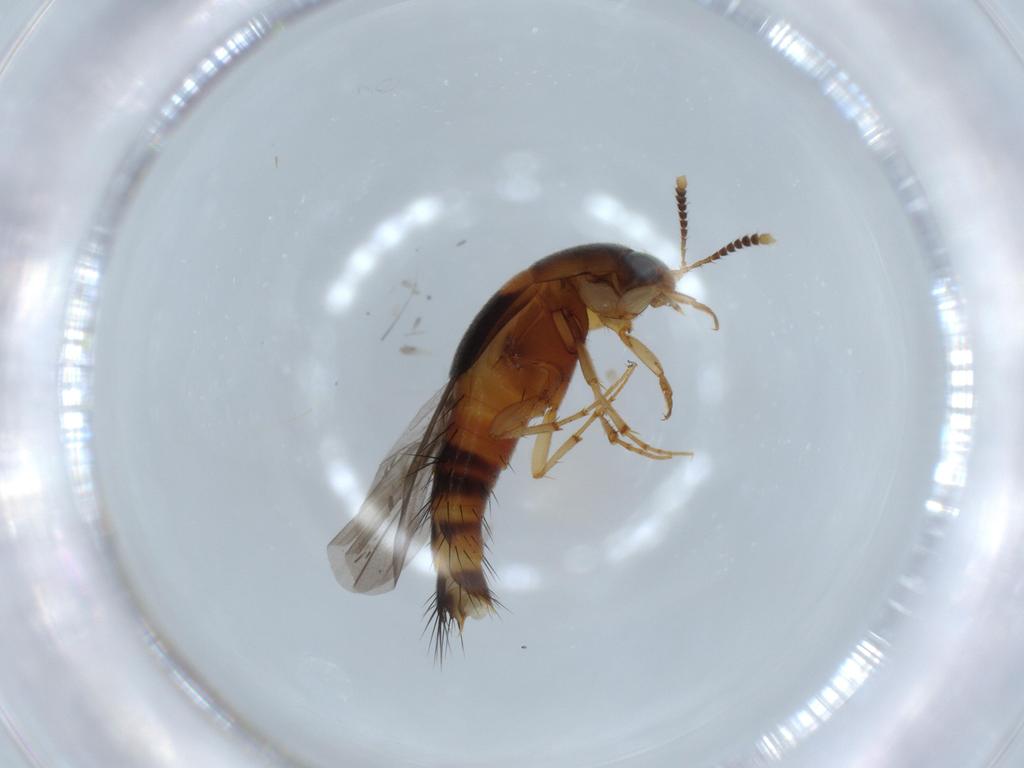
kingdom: Animalia
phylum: Arthropoda
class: Insecta
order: Coleoptera
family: Staphylinidae
